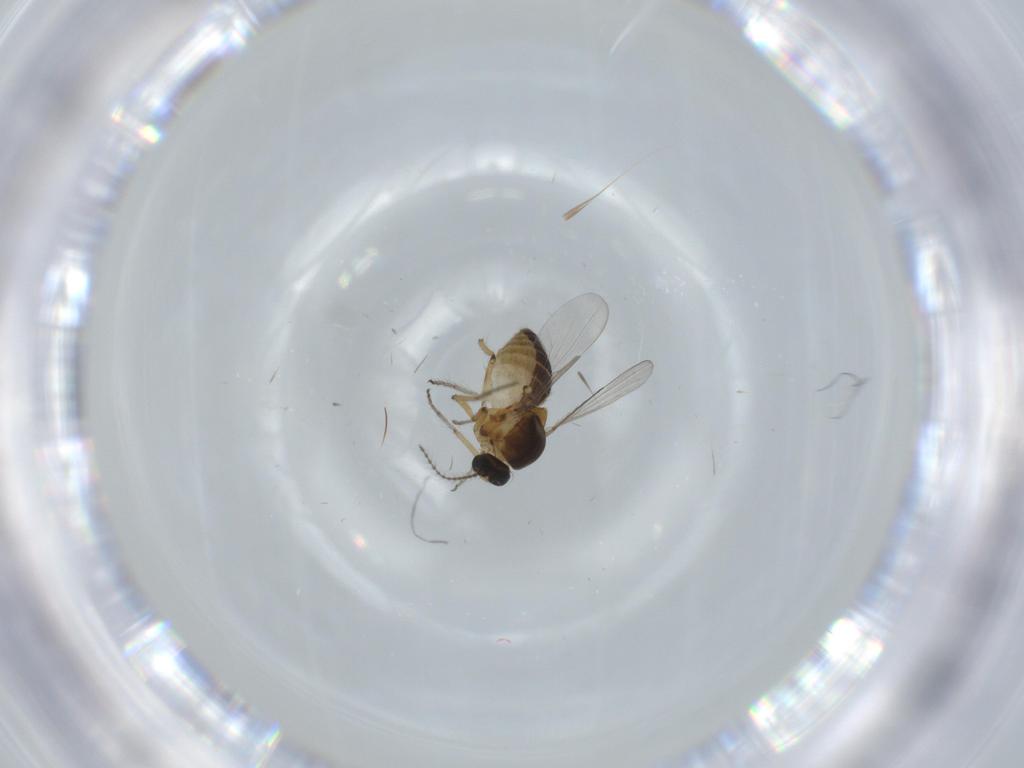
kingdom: Animalia
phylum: Arthropoda
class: Insecta
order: Diptera
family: Ceratopogonidae
